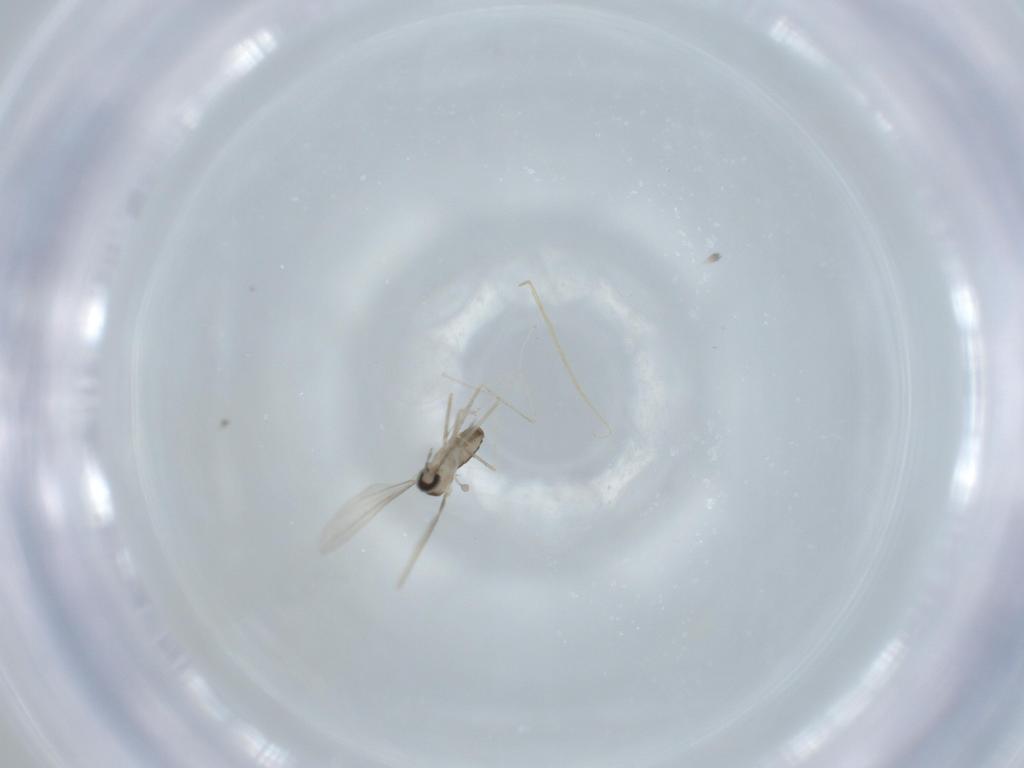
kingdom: Animalia
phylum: Arthropoda
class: Insecta
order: Diptera
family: Cecidomyiidae
